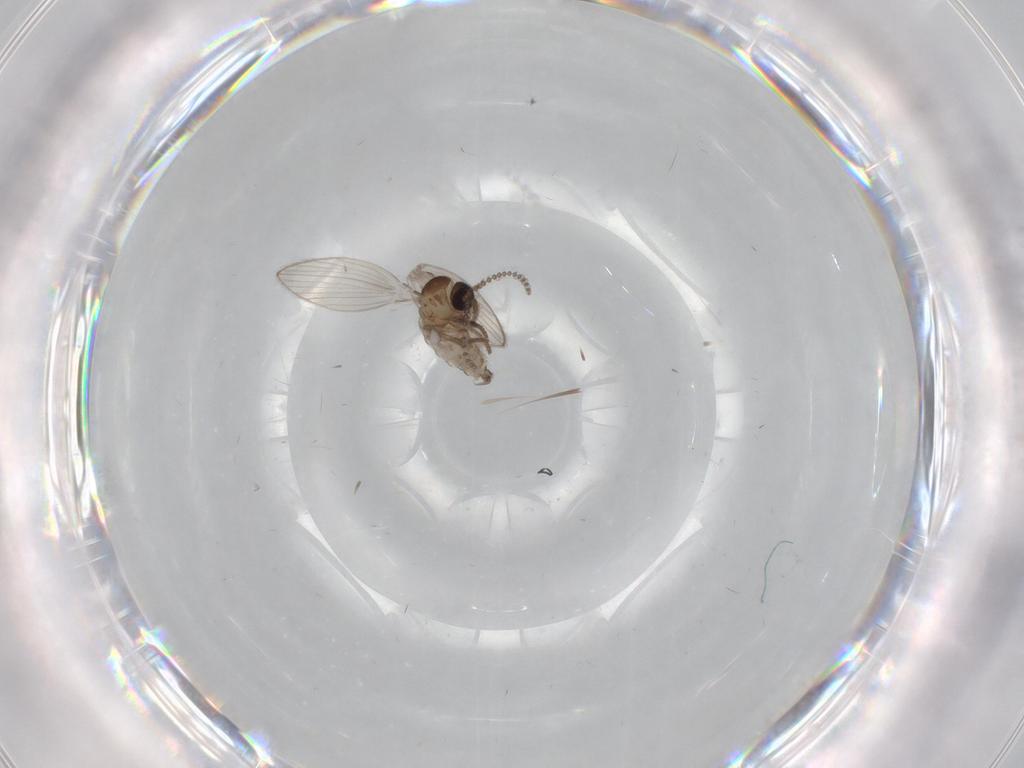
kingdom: Animalia
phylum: Arthropoda
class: Insecta
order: Diptera
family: Psychodidae
